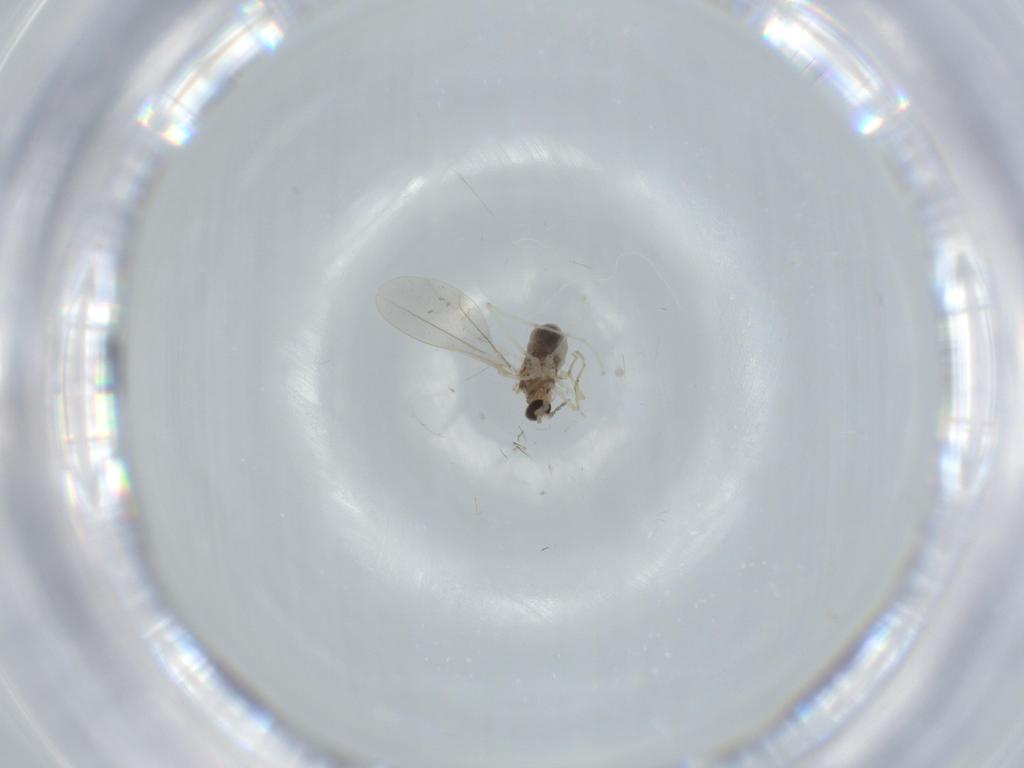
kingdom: Animalia
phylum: Arthropoda
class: Insecta
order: Diptera
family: Cecidomyiidae
